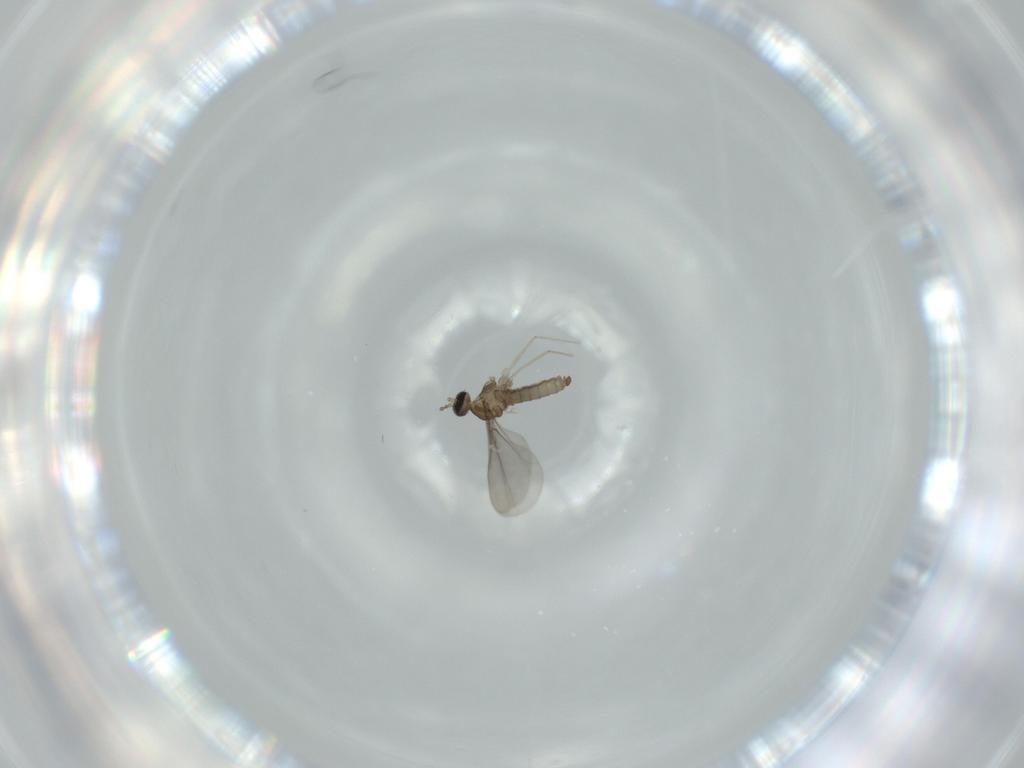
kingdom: Animalia
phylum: Arthropoda
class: Insecta
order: Diptera
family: Cecidomyiidae
